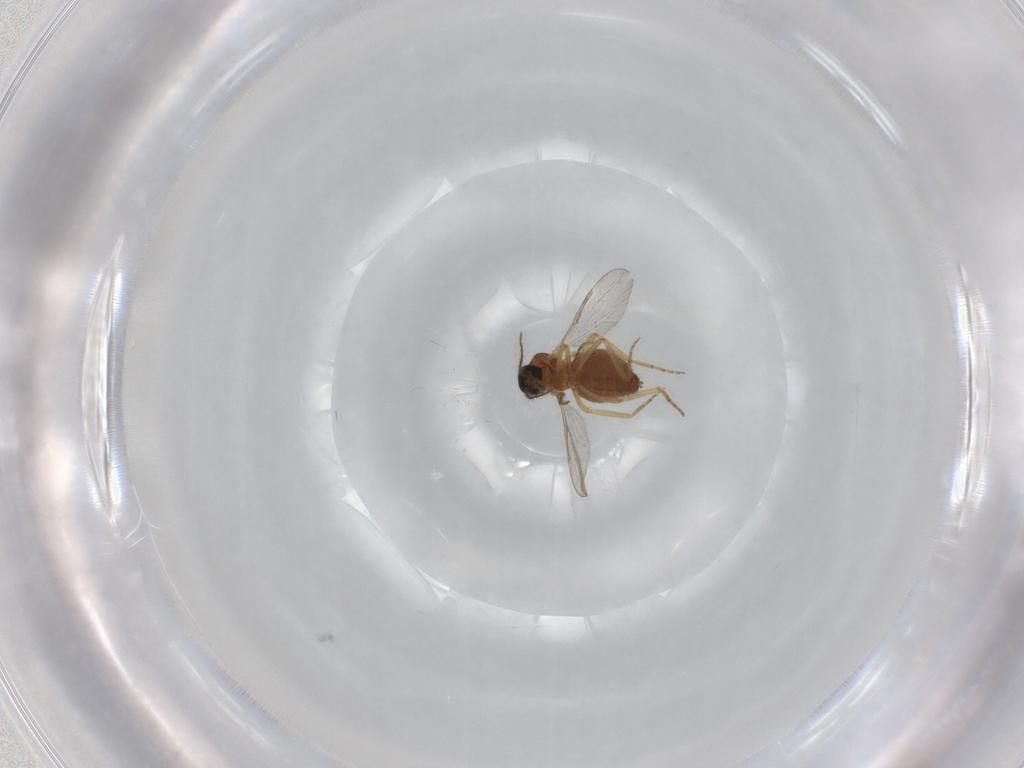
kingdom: Animalia
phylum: Arthropoda
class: Insecta
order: Diptera
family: Ceratopogonidae
